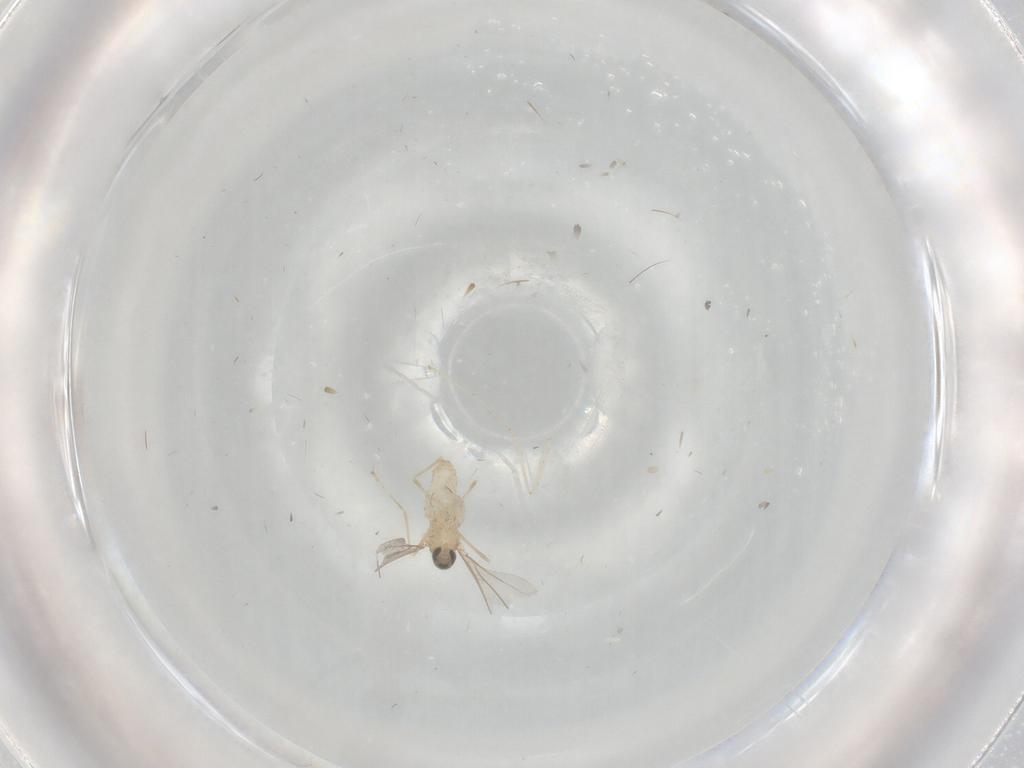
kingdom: Animalia
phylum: Arthropoda
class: Insecta
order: Diptera
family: Cecidomyiidae
